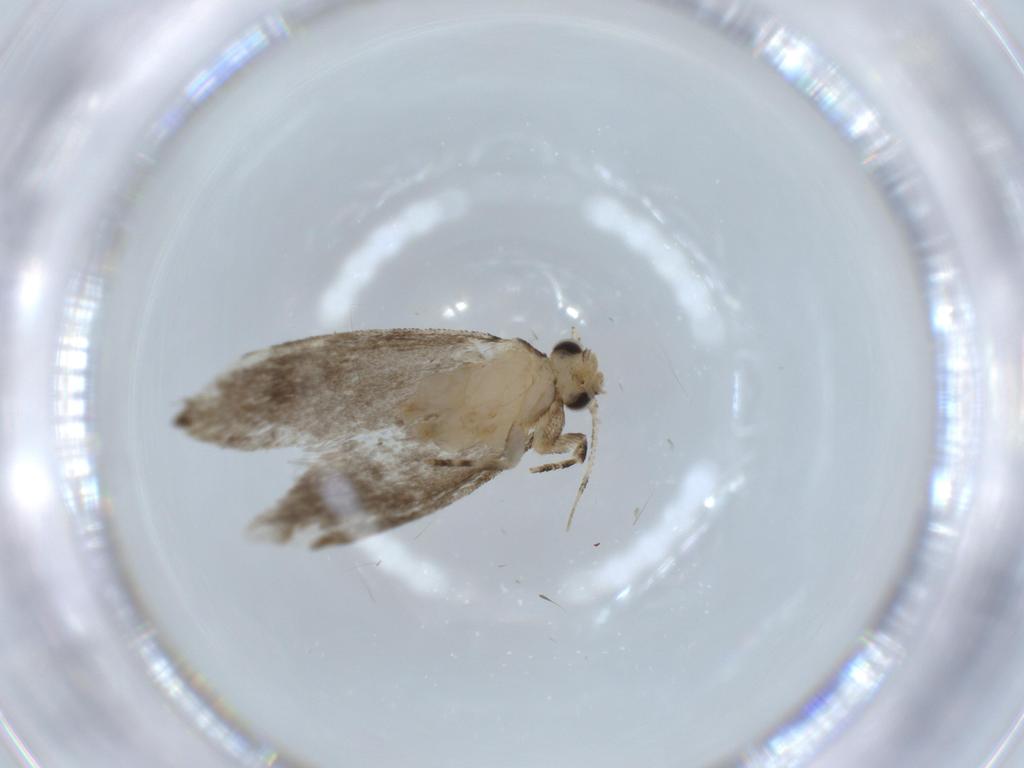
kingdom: Animalia
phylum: Arthropoda
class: Insecta
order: Lepidoptera
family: Tineidae
